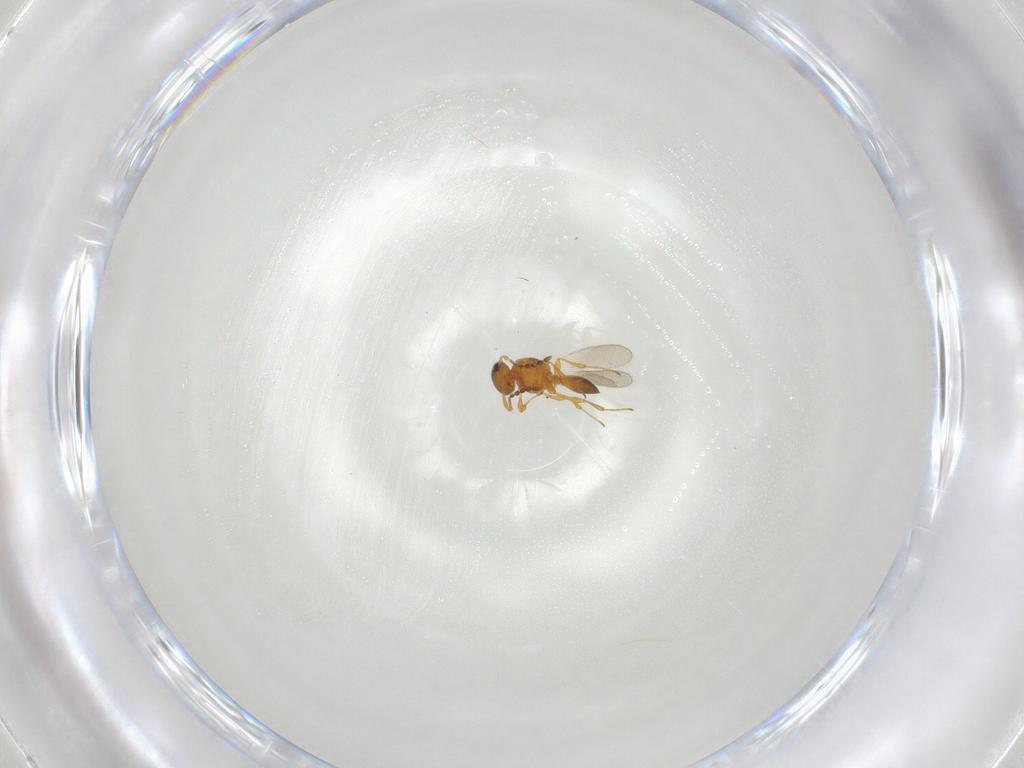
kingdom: Animalia
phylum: Arthropoda
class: Insecta
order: Hymenoptera
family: Platygastridae
